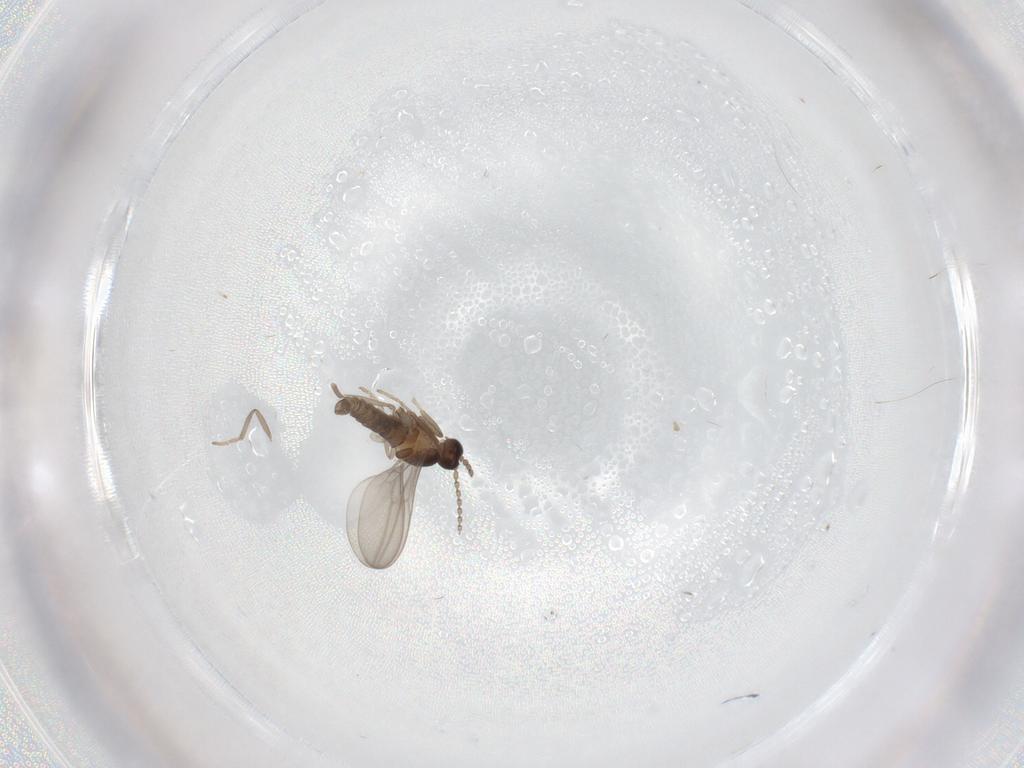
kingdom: Animalia
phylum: Arthropoda
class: Insecta
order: Diptera
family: Cecidomyiidae
